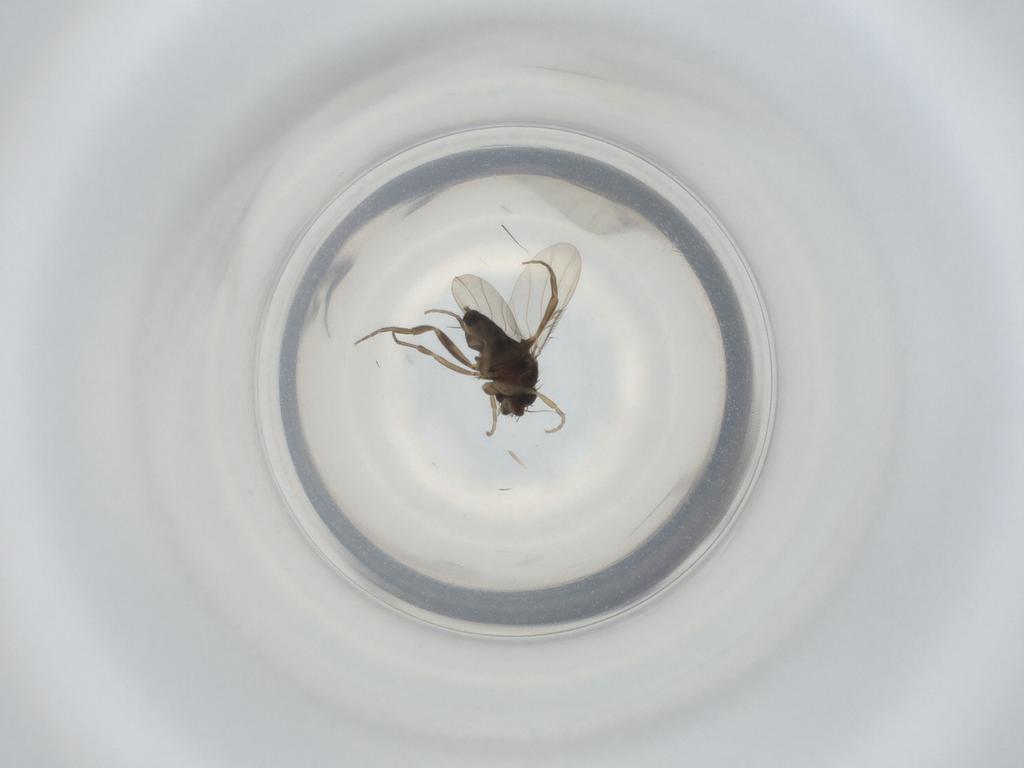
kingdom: Animalia
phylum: Arthropoda
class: Insecta
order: Diptera
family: Phoridae
